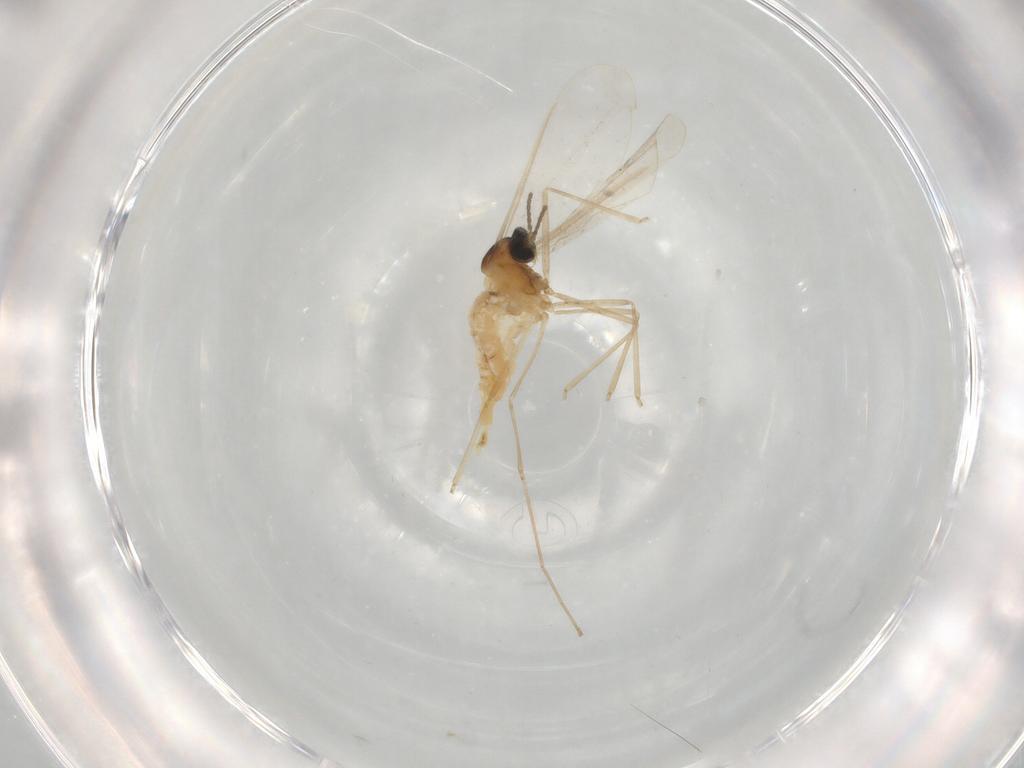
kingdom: Animalia
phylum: Arthropoda
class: Insecta
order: Diptera
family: Cecidomyiidae
